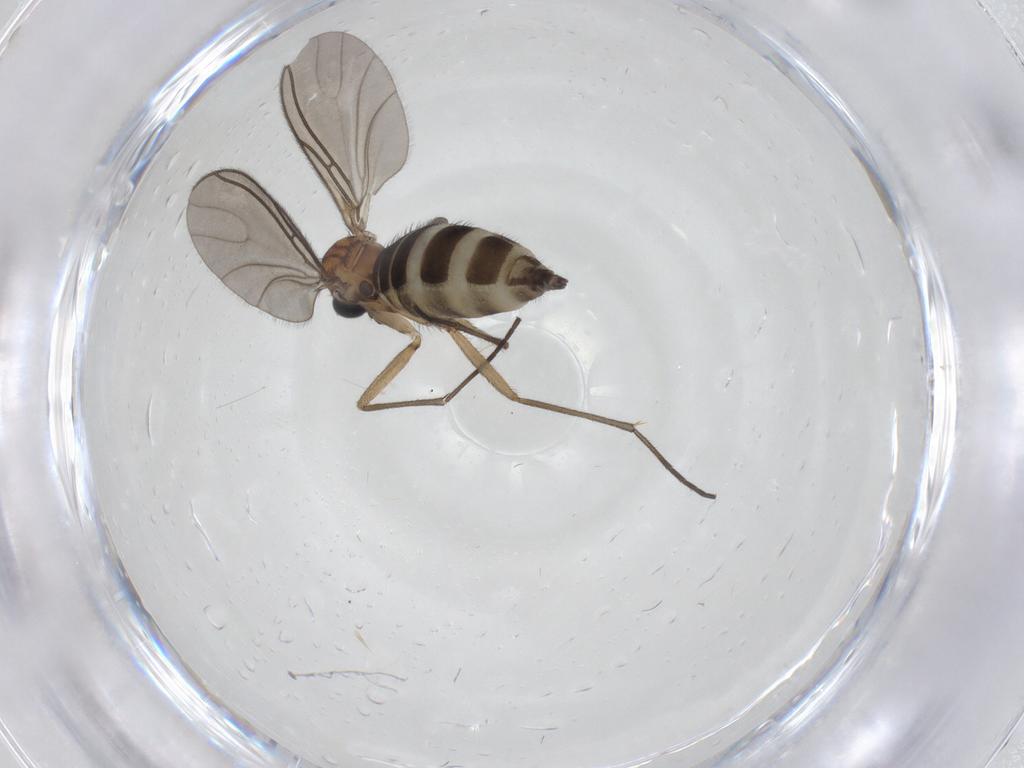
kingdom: Animalia
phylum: Arthropoda
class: Insecta
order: Diptera
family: Sciaridae
